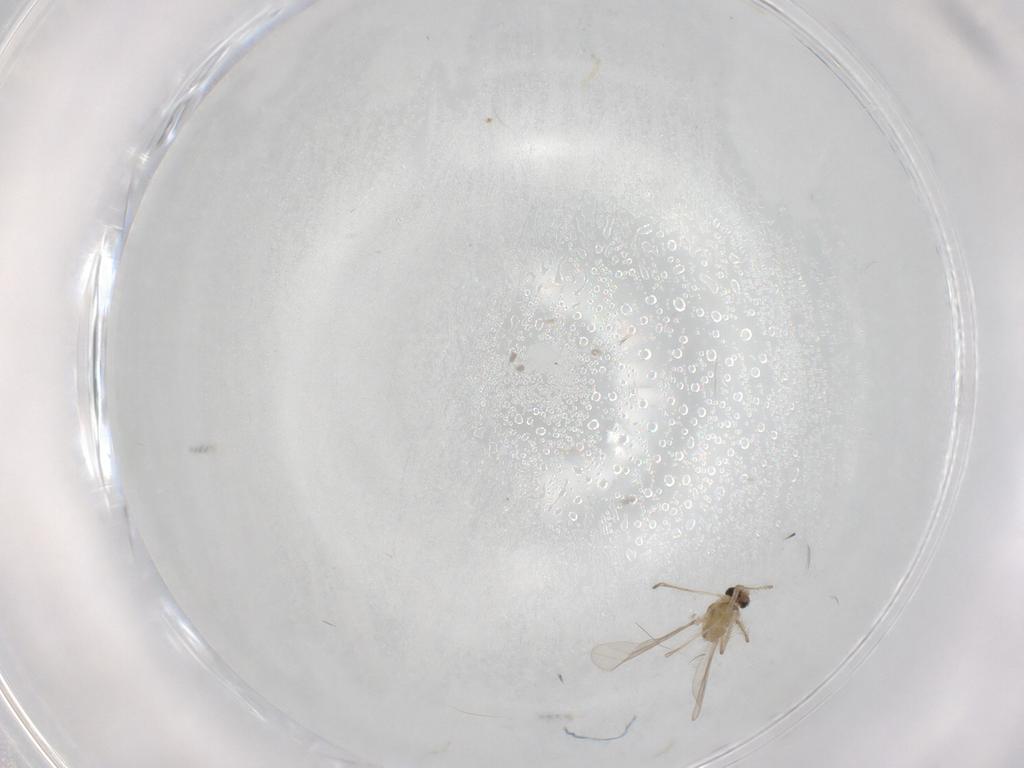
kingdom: Animalia
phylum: Arthropoda
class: Insecta
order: Diptera
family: Chironomidae
